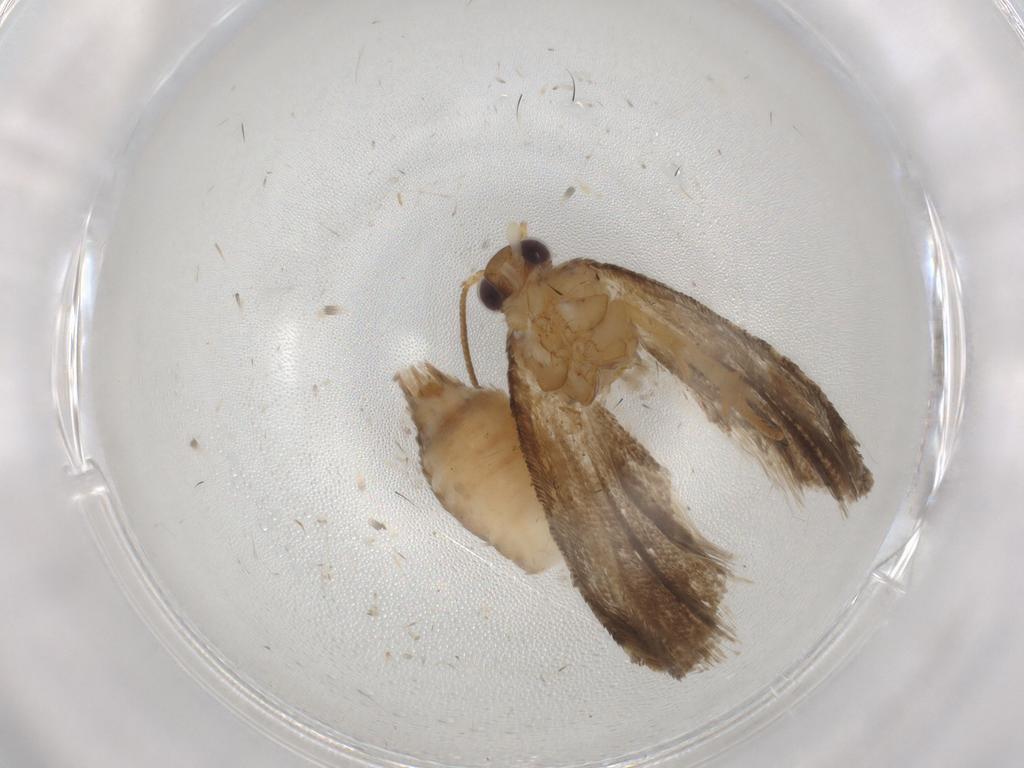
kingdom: Animalia
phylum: Arthropoda
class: Insecta
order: Lepidoptera
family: Tortricidae
